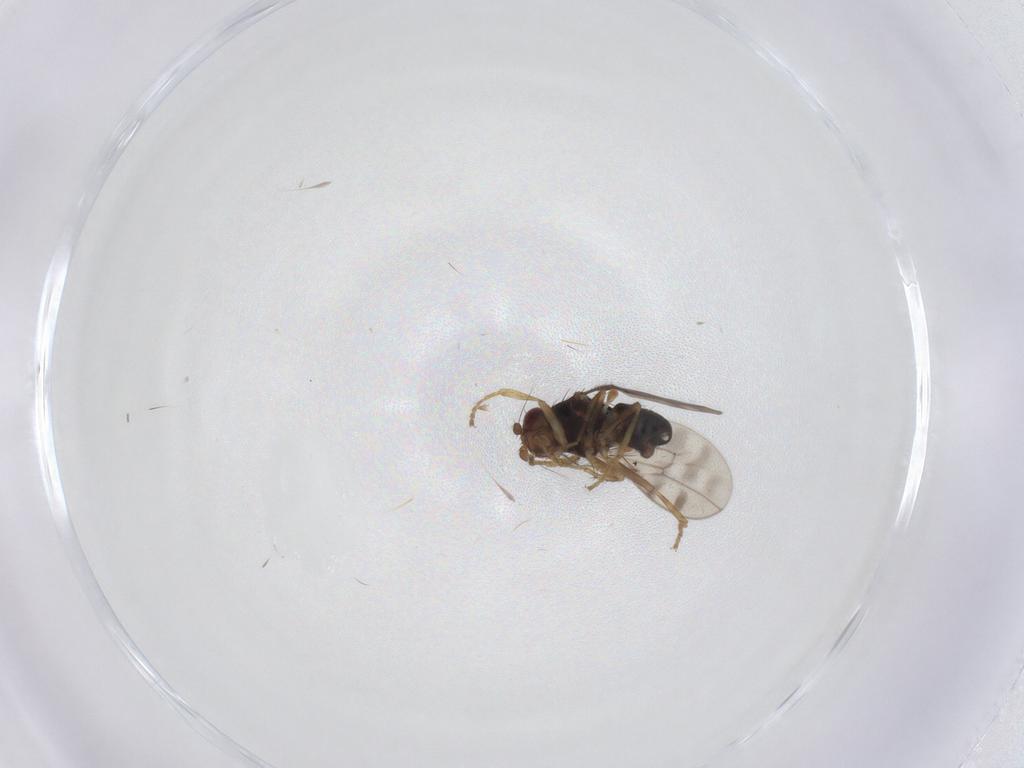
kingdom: Animalia
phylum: Arthropoda
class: Insecta
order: Diptera
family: Sphaeroceridae
